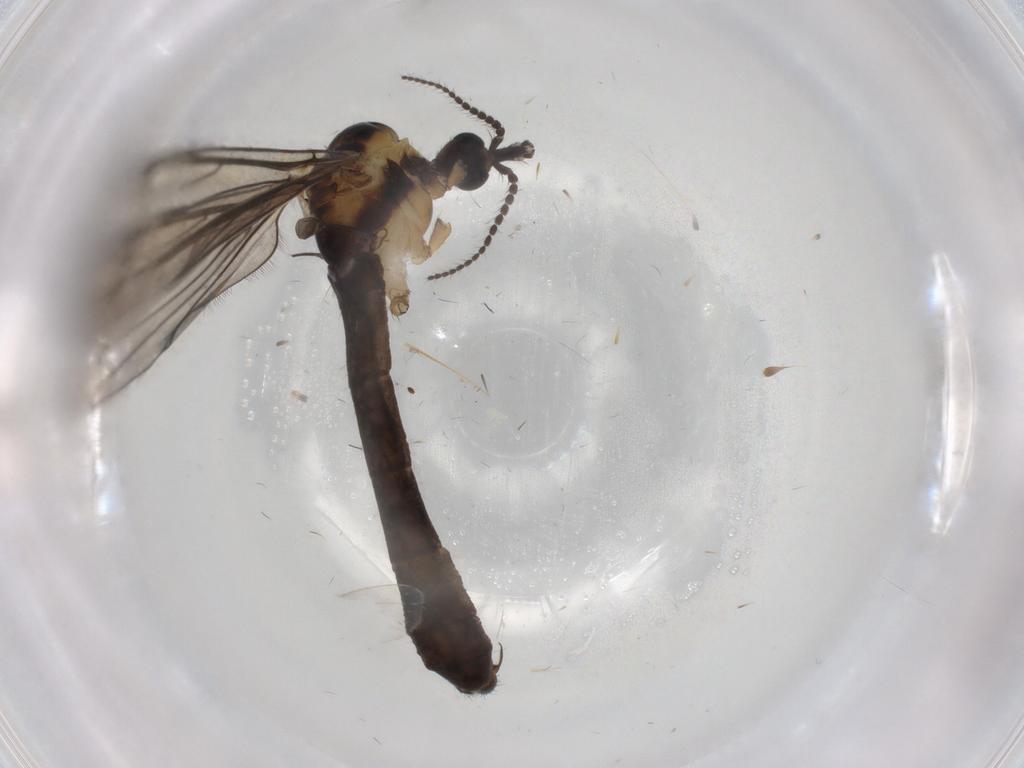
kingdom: Animalia
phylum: Arthropoda
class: Insecta
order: Diptera
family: Limoniidae
